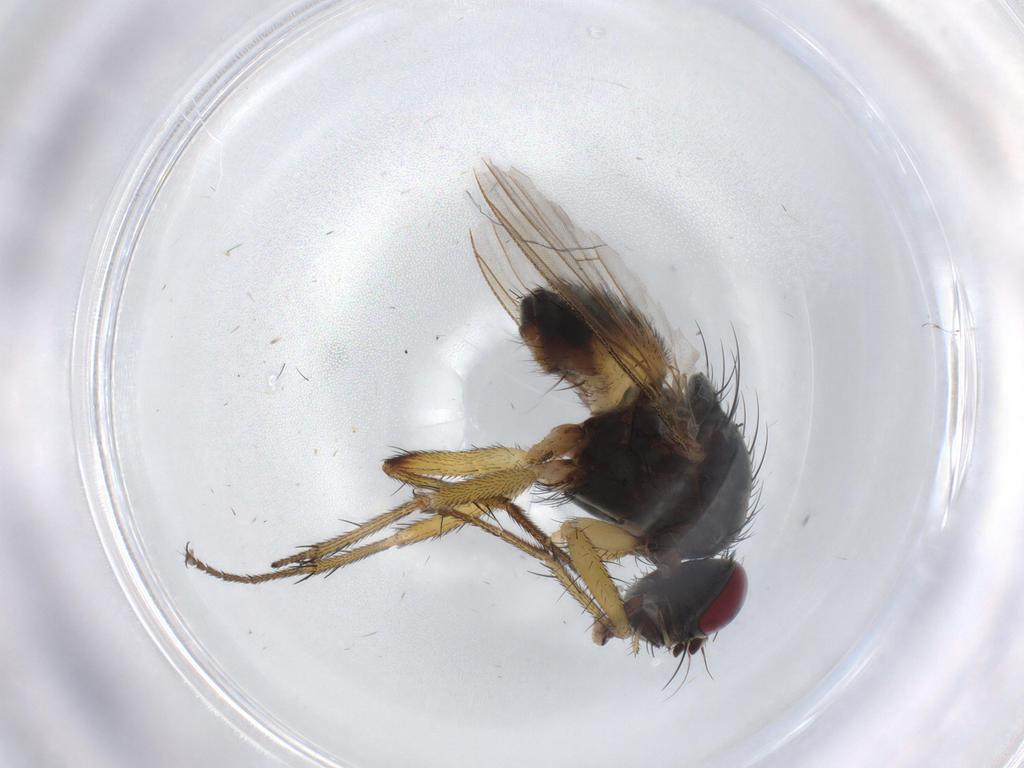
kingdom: Animalia
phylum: Arthropoda
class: Insecta
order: Diptera
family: Muscidae
